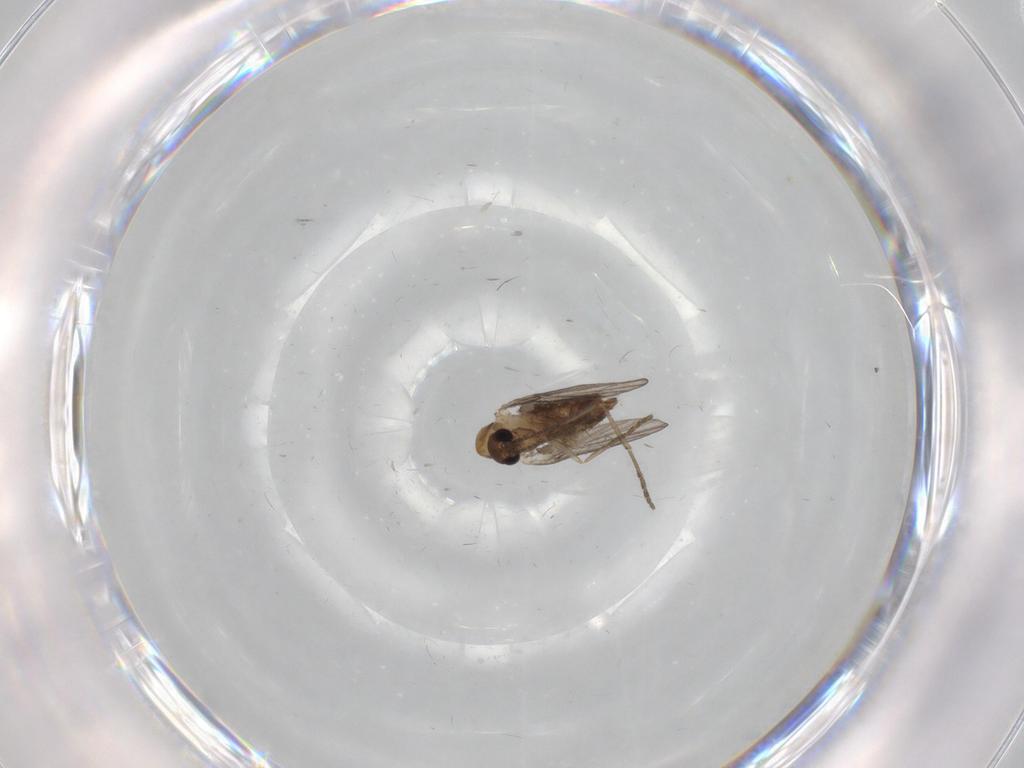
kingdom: Animalia
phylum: Arthropoda
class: Insecta
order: Diptera
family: Psychodidae
